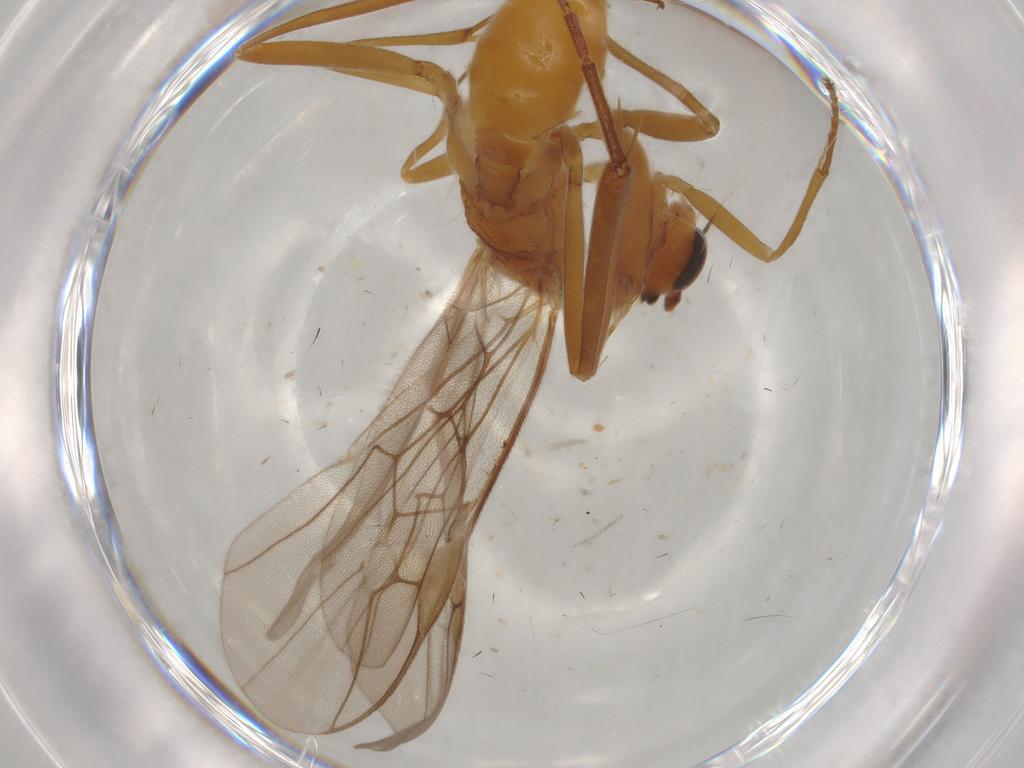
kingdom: Animalia
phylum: Arthropoda
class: Insecta
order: Hymenoptera
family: Braconidae
